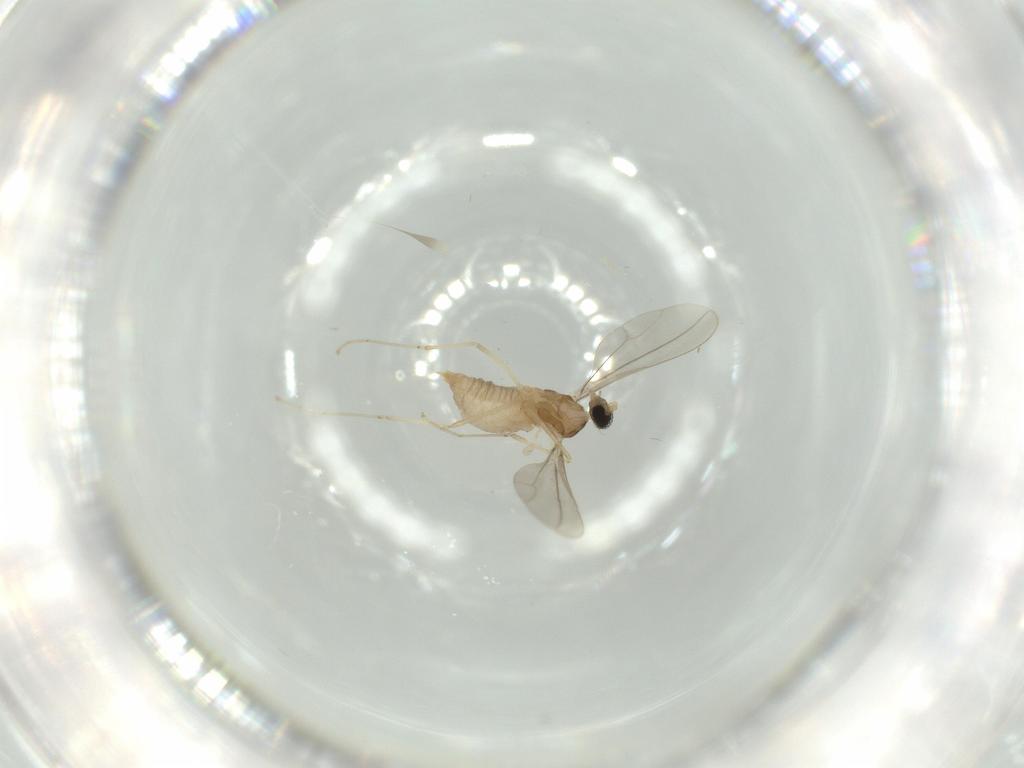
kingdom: Animalia
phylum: Arthropoda
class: Insecta
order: Diptera
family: Cecidomyiidae
